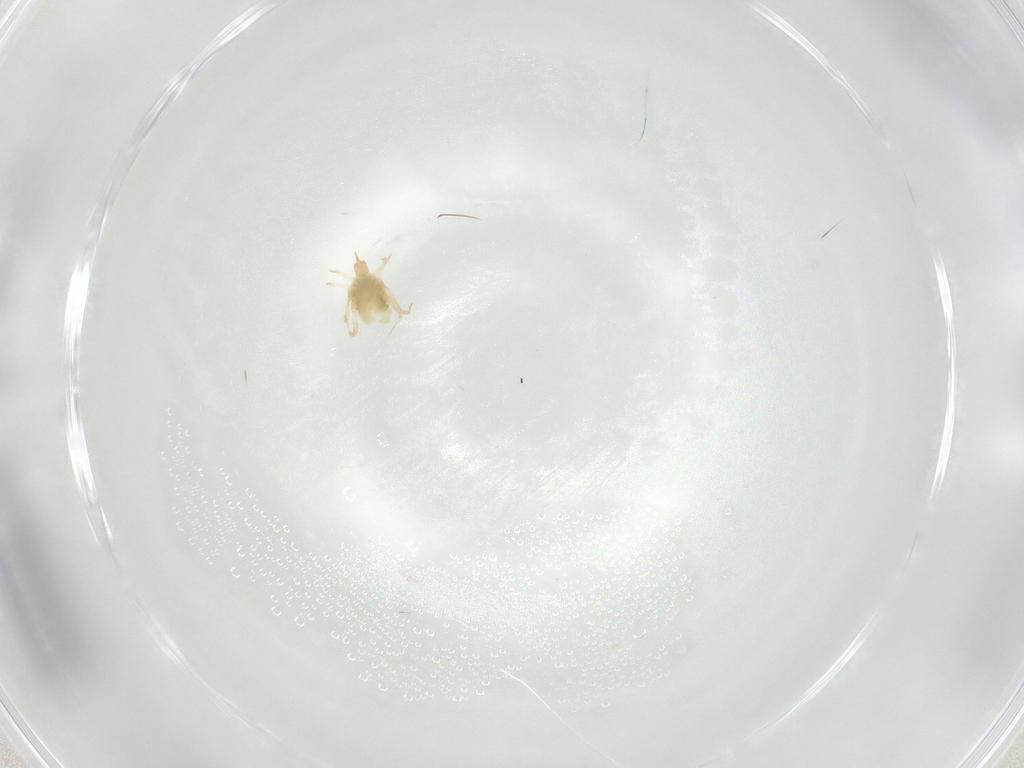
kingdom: Animalia
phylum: Arthropoda
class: Arachnida
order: Trombidiformes
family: Cunaxidae
